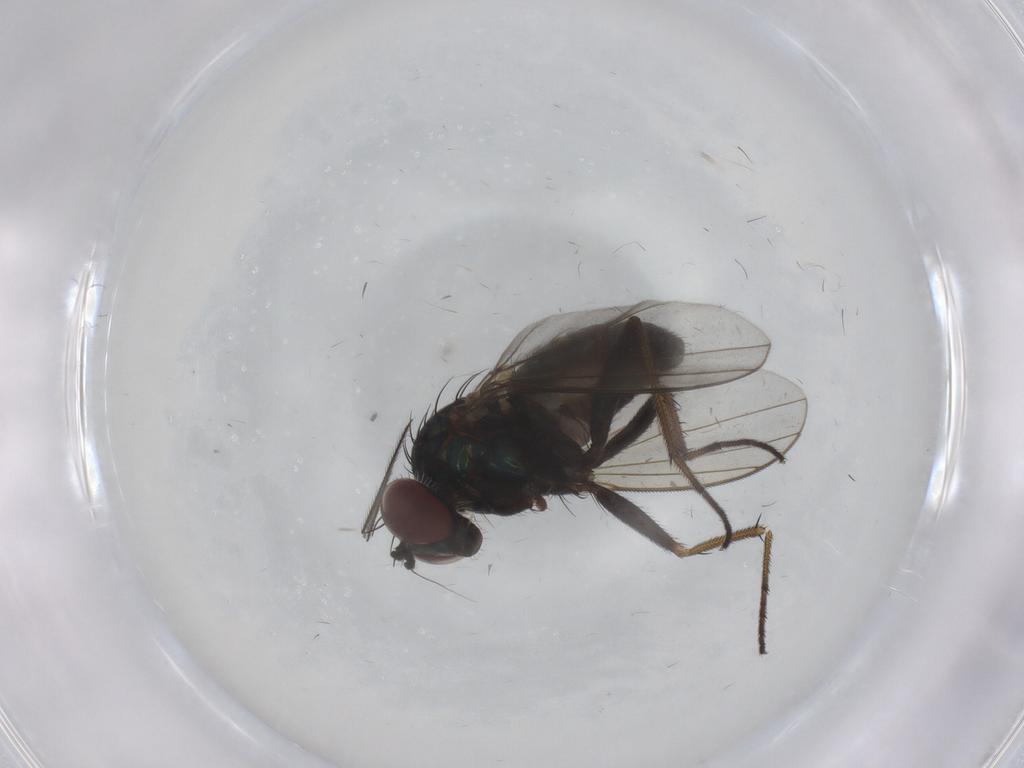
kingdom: Animalia
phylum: Arthropoda
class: Insecta
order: Diptera
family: Dolichopodidae
